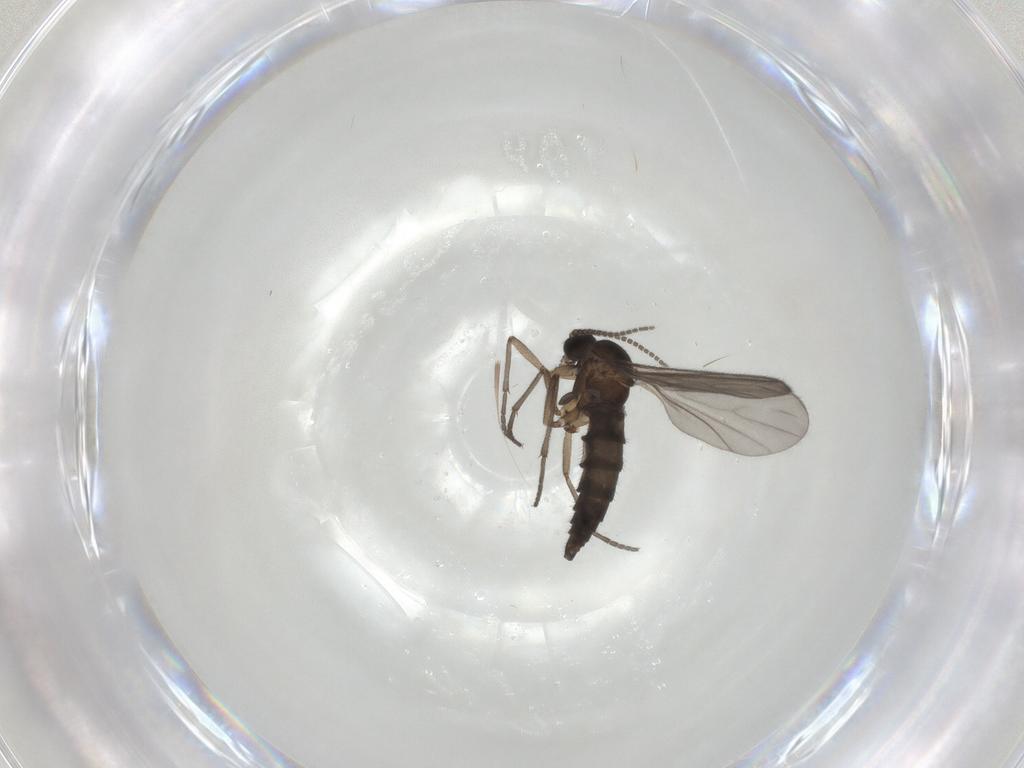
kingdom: Animalia
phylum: Arthropoda
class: Insecta
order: Diptera
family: Sciaridae
